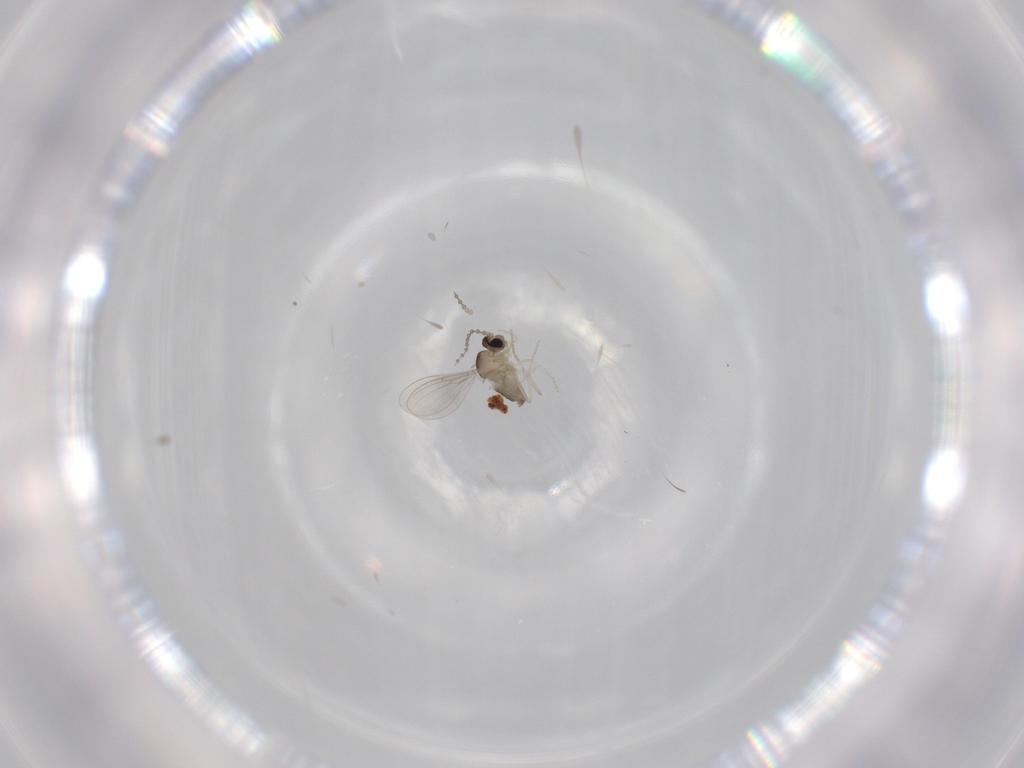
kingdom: Animalia
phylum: Arthropoda
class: Insecta
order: Diptera
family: Cecidomyiidae
